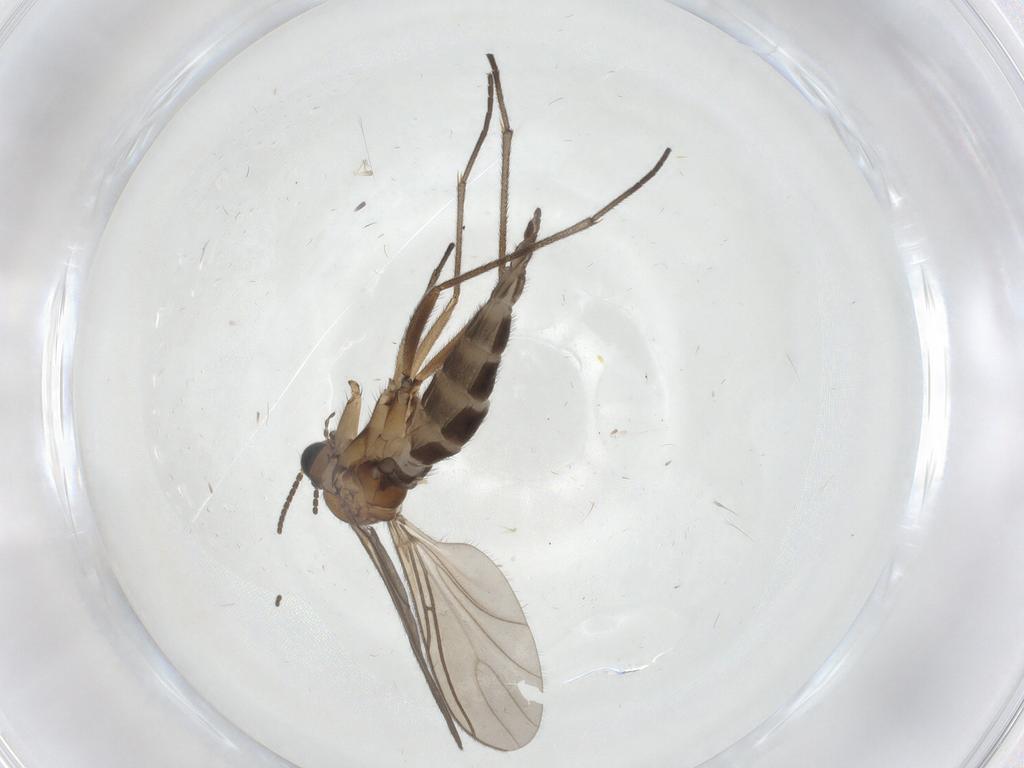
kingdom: Animalia
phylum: Arthropoda
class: Insecta
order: Diptera
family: Sciaridae
